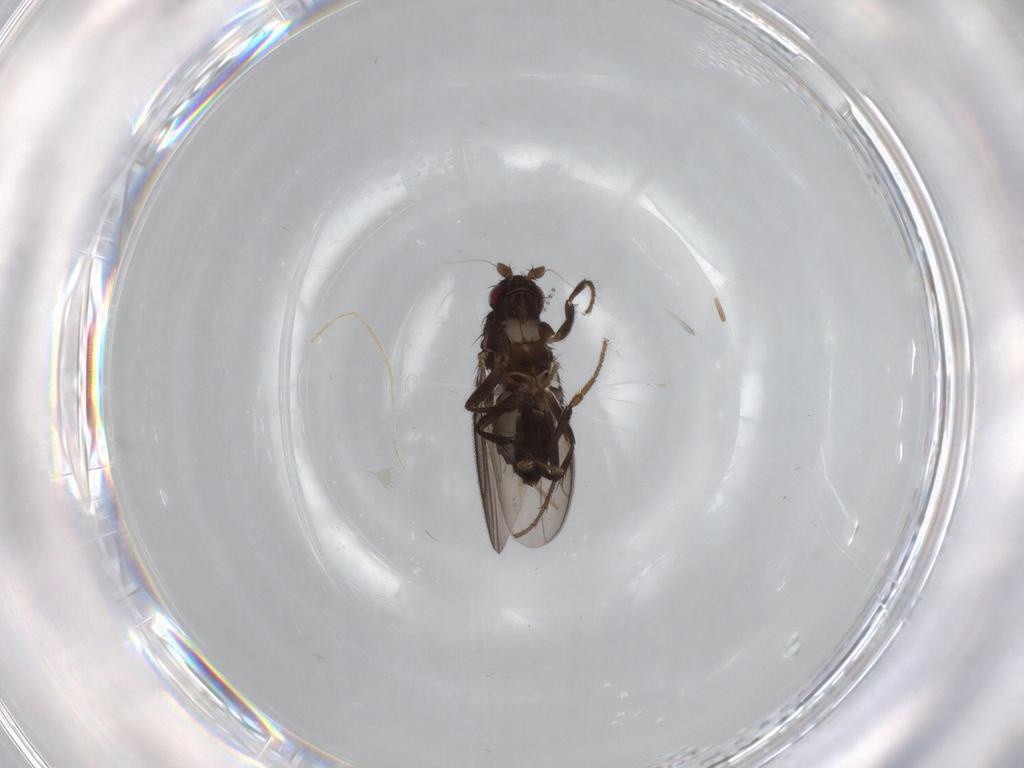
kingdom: Animalia
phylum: Arthropoda
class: Insecta
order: Diptera
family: Sphaeroceridae
